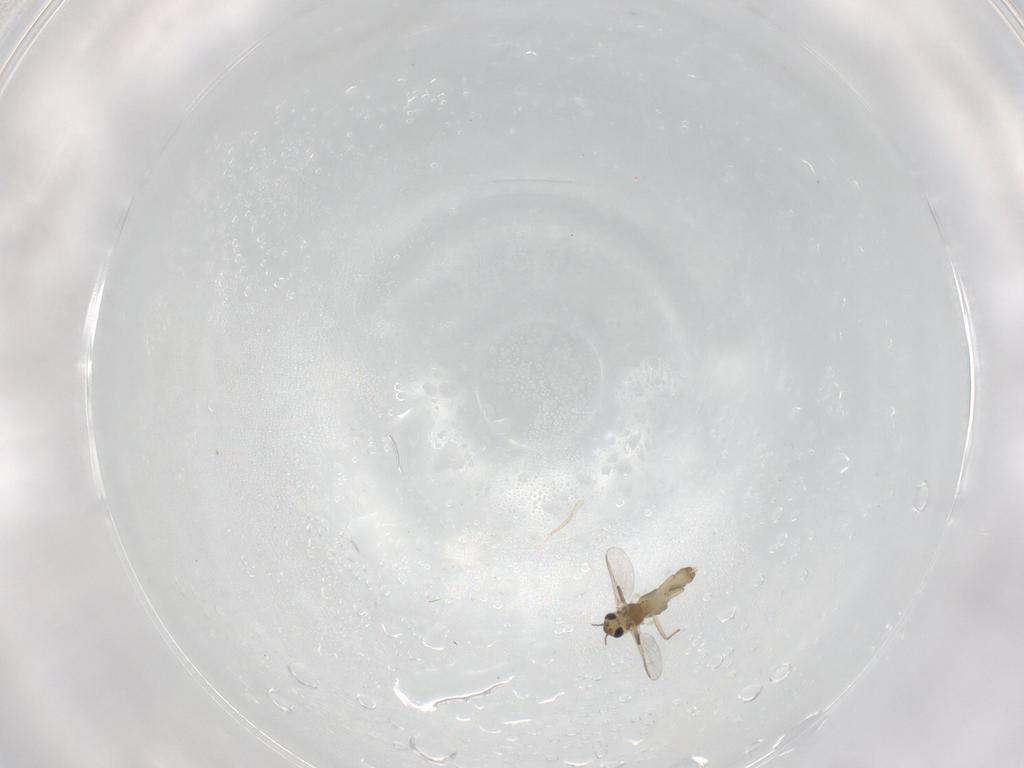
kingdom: Animalia
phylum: Arthropoda
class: Insecta
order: Diptera
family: Chironomidae
